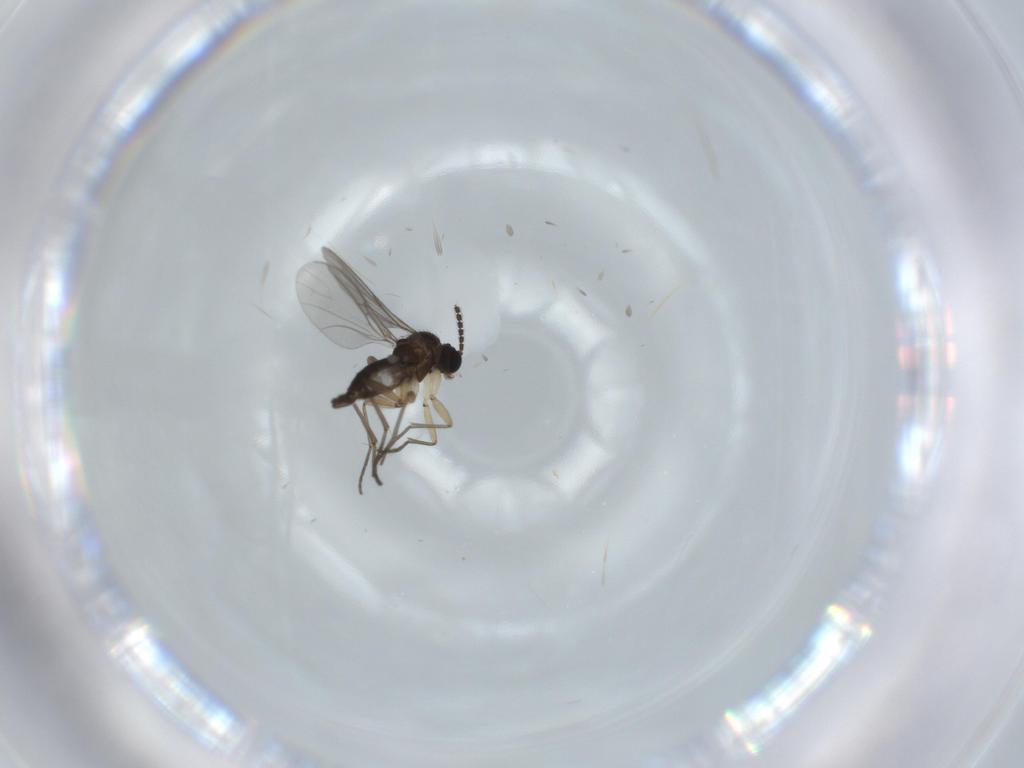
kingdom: Animalia
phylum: Arthropoda
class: Insecta
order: Diptera
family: Sciaridae
